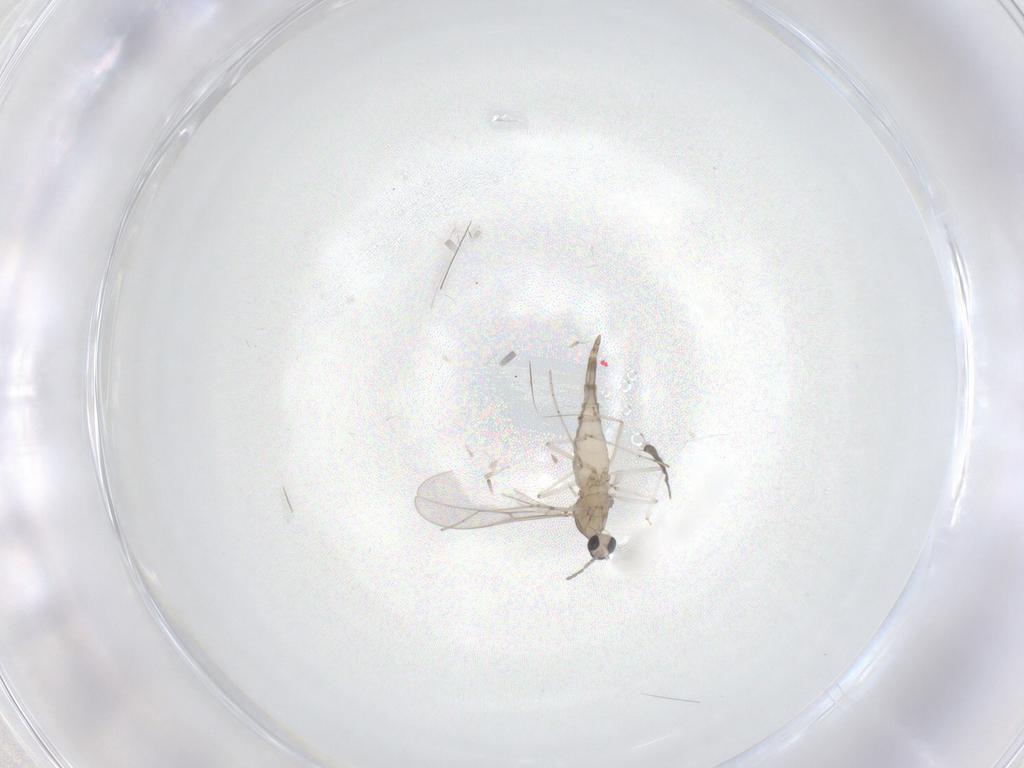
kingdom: Animalia
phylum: Arthropoda
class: Insecta
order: Diptera
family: Cecidomyiidae
